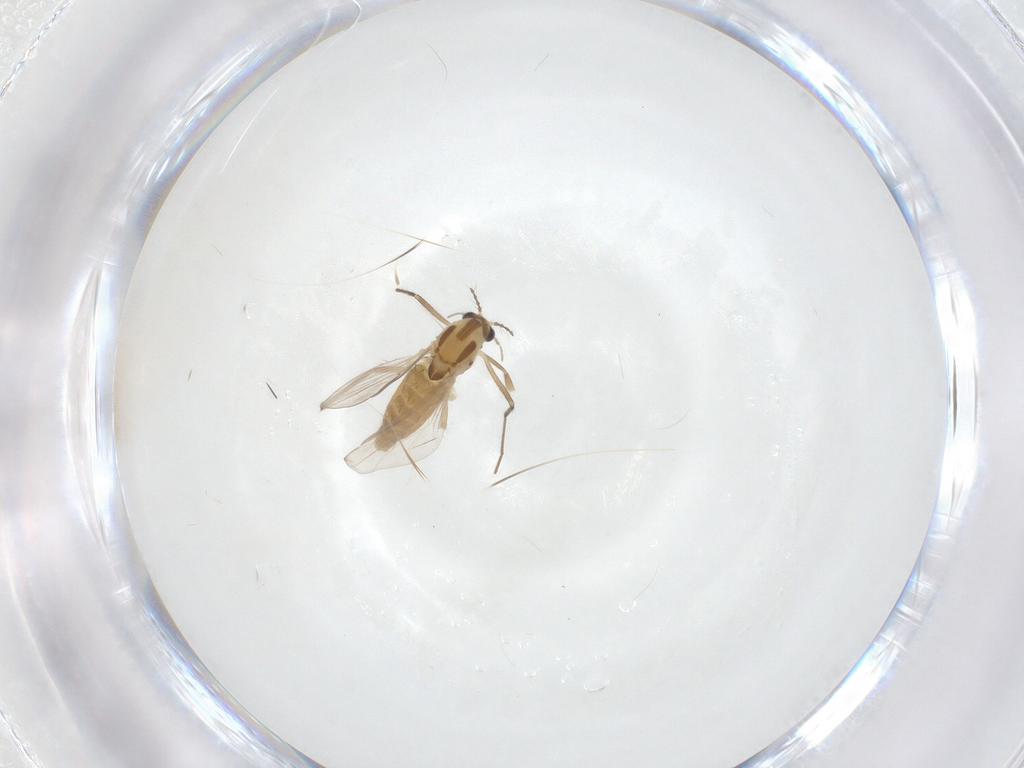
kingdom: Animalia
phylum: Arthropoda
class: Insecta
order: Diptera
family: Chironomidae
